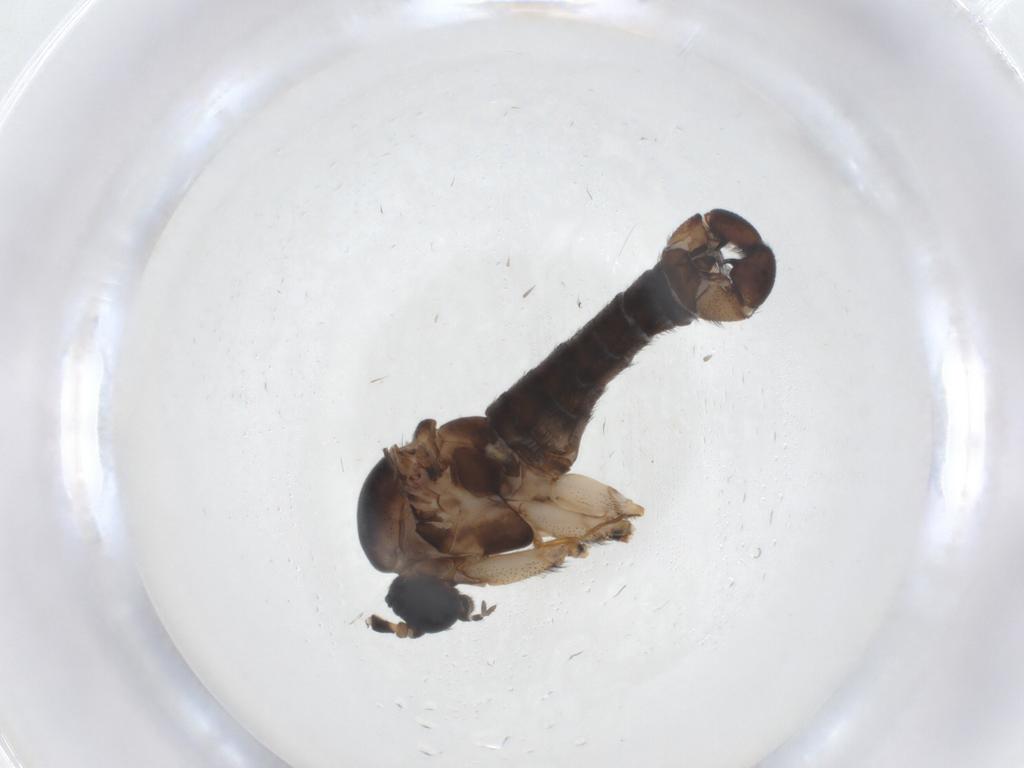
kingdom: Animalia
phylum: Arthropoda
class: Insecta
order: Diptera
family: Sciaridae
